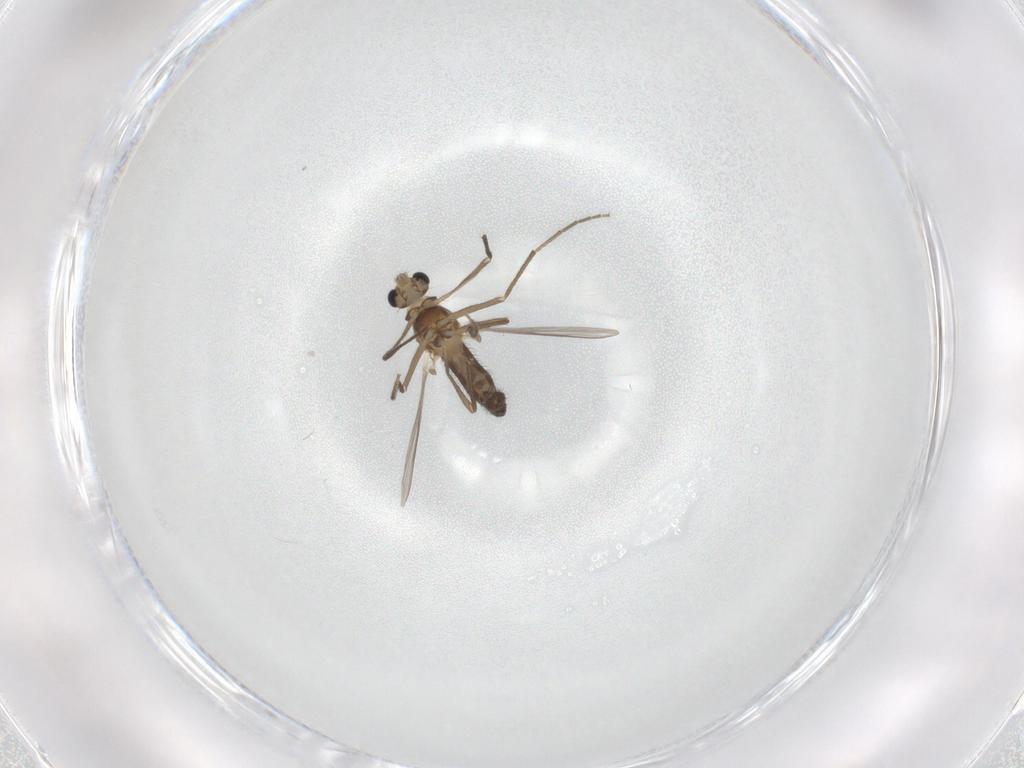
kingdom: Animalia
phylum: Arthropoda
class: Insecta
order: Diptera
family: Chironomidae
